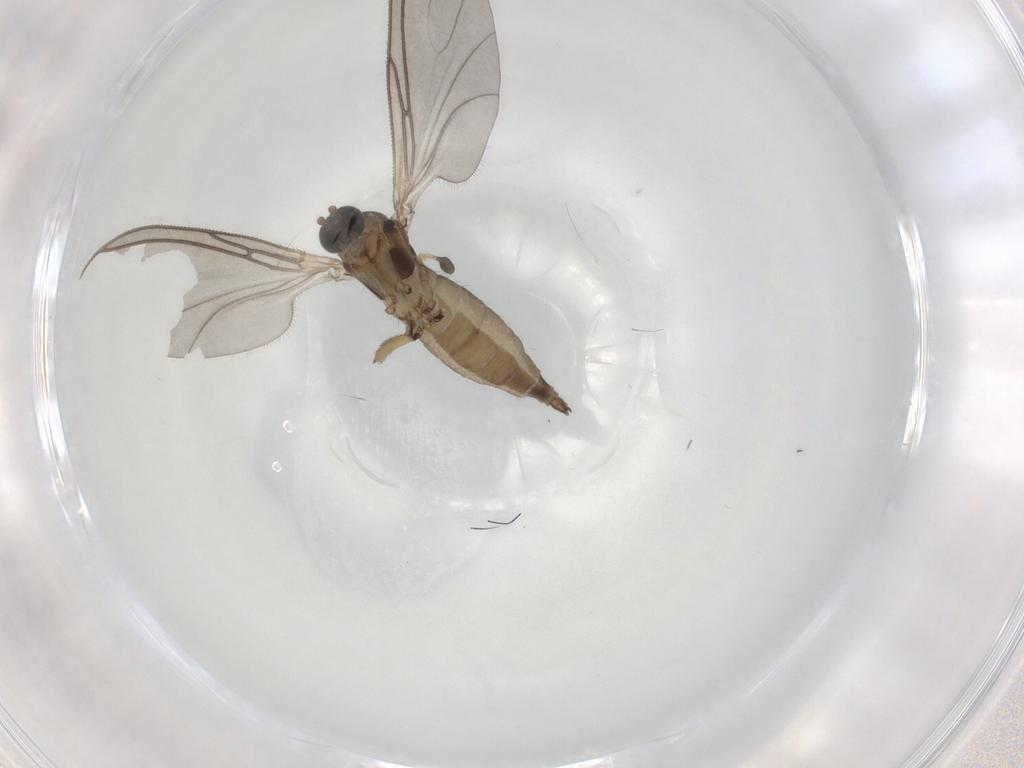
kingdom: Animalia
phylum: Arthropoda
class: Insecta
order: Diptera
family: Sciaridae
